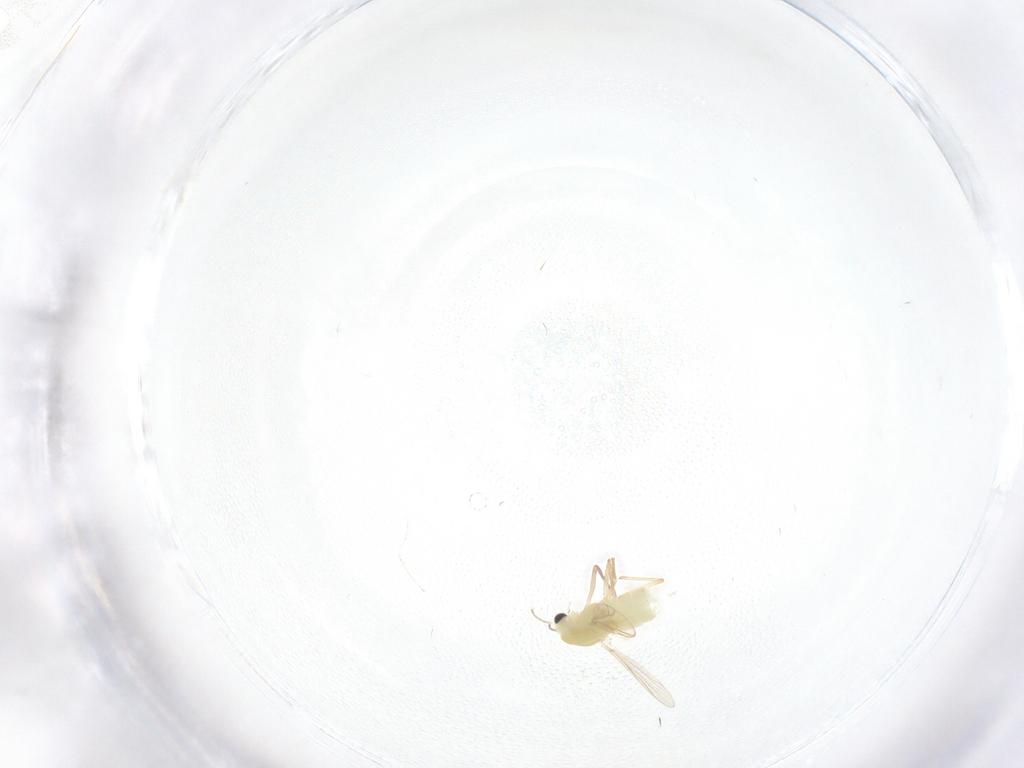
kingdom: Animalia
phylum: Arthropoda
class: Insecta
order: Diptera
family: Chironomidae
